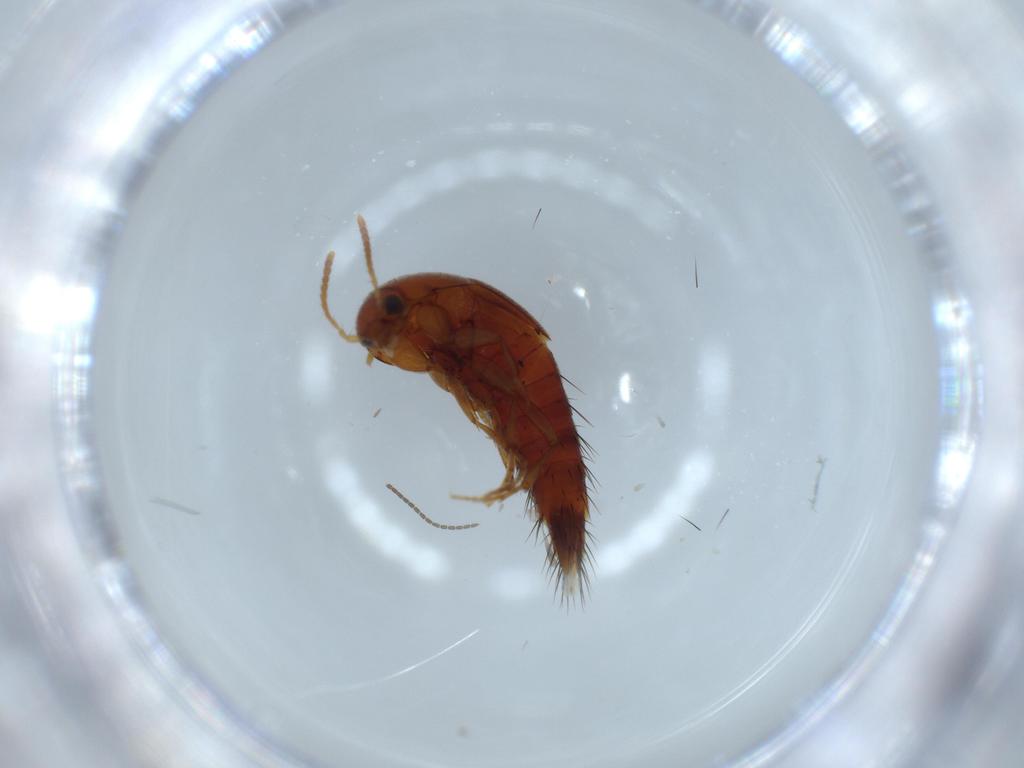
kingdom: Animalia
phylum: Arthropoda
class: Insecta
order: Coleoptera
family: Staphylinidae
